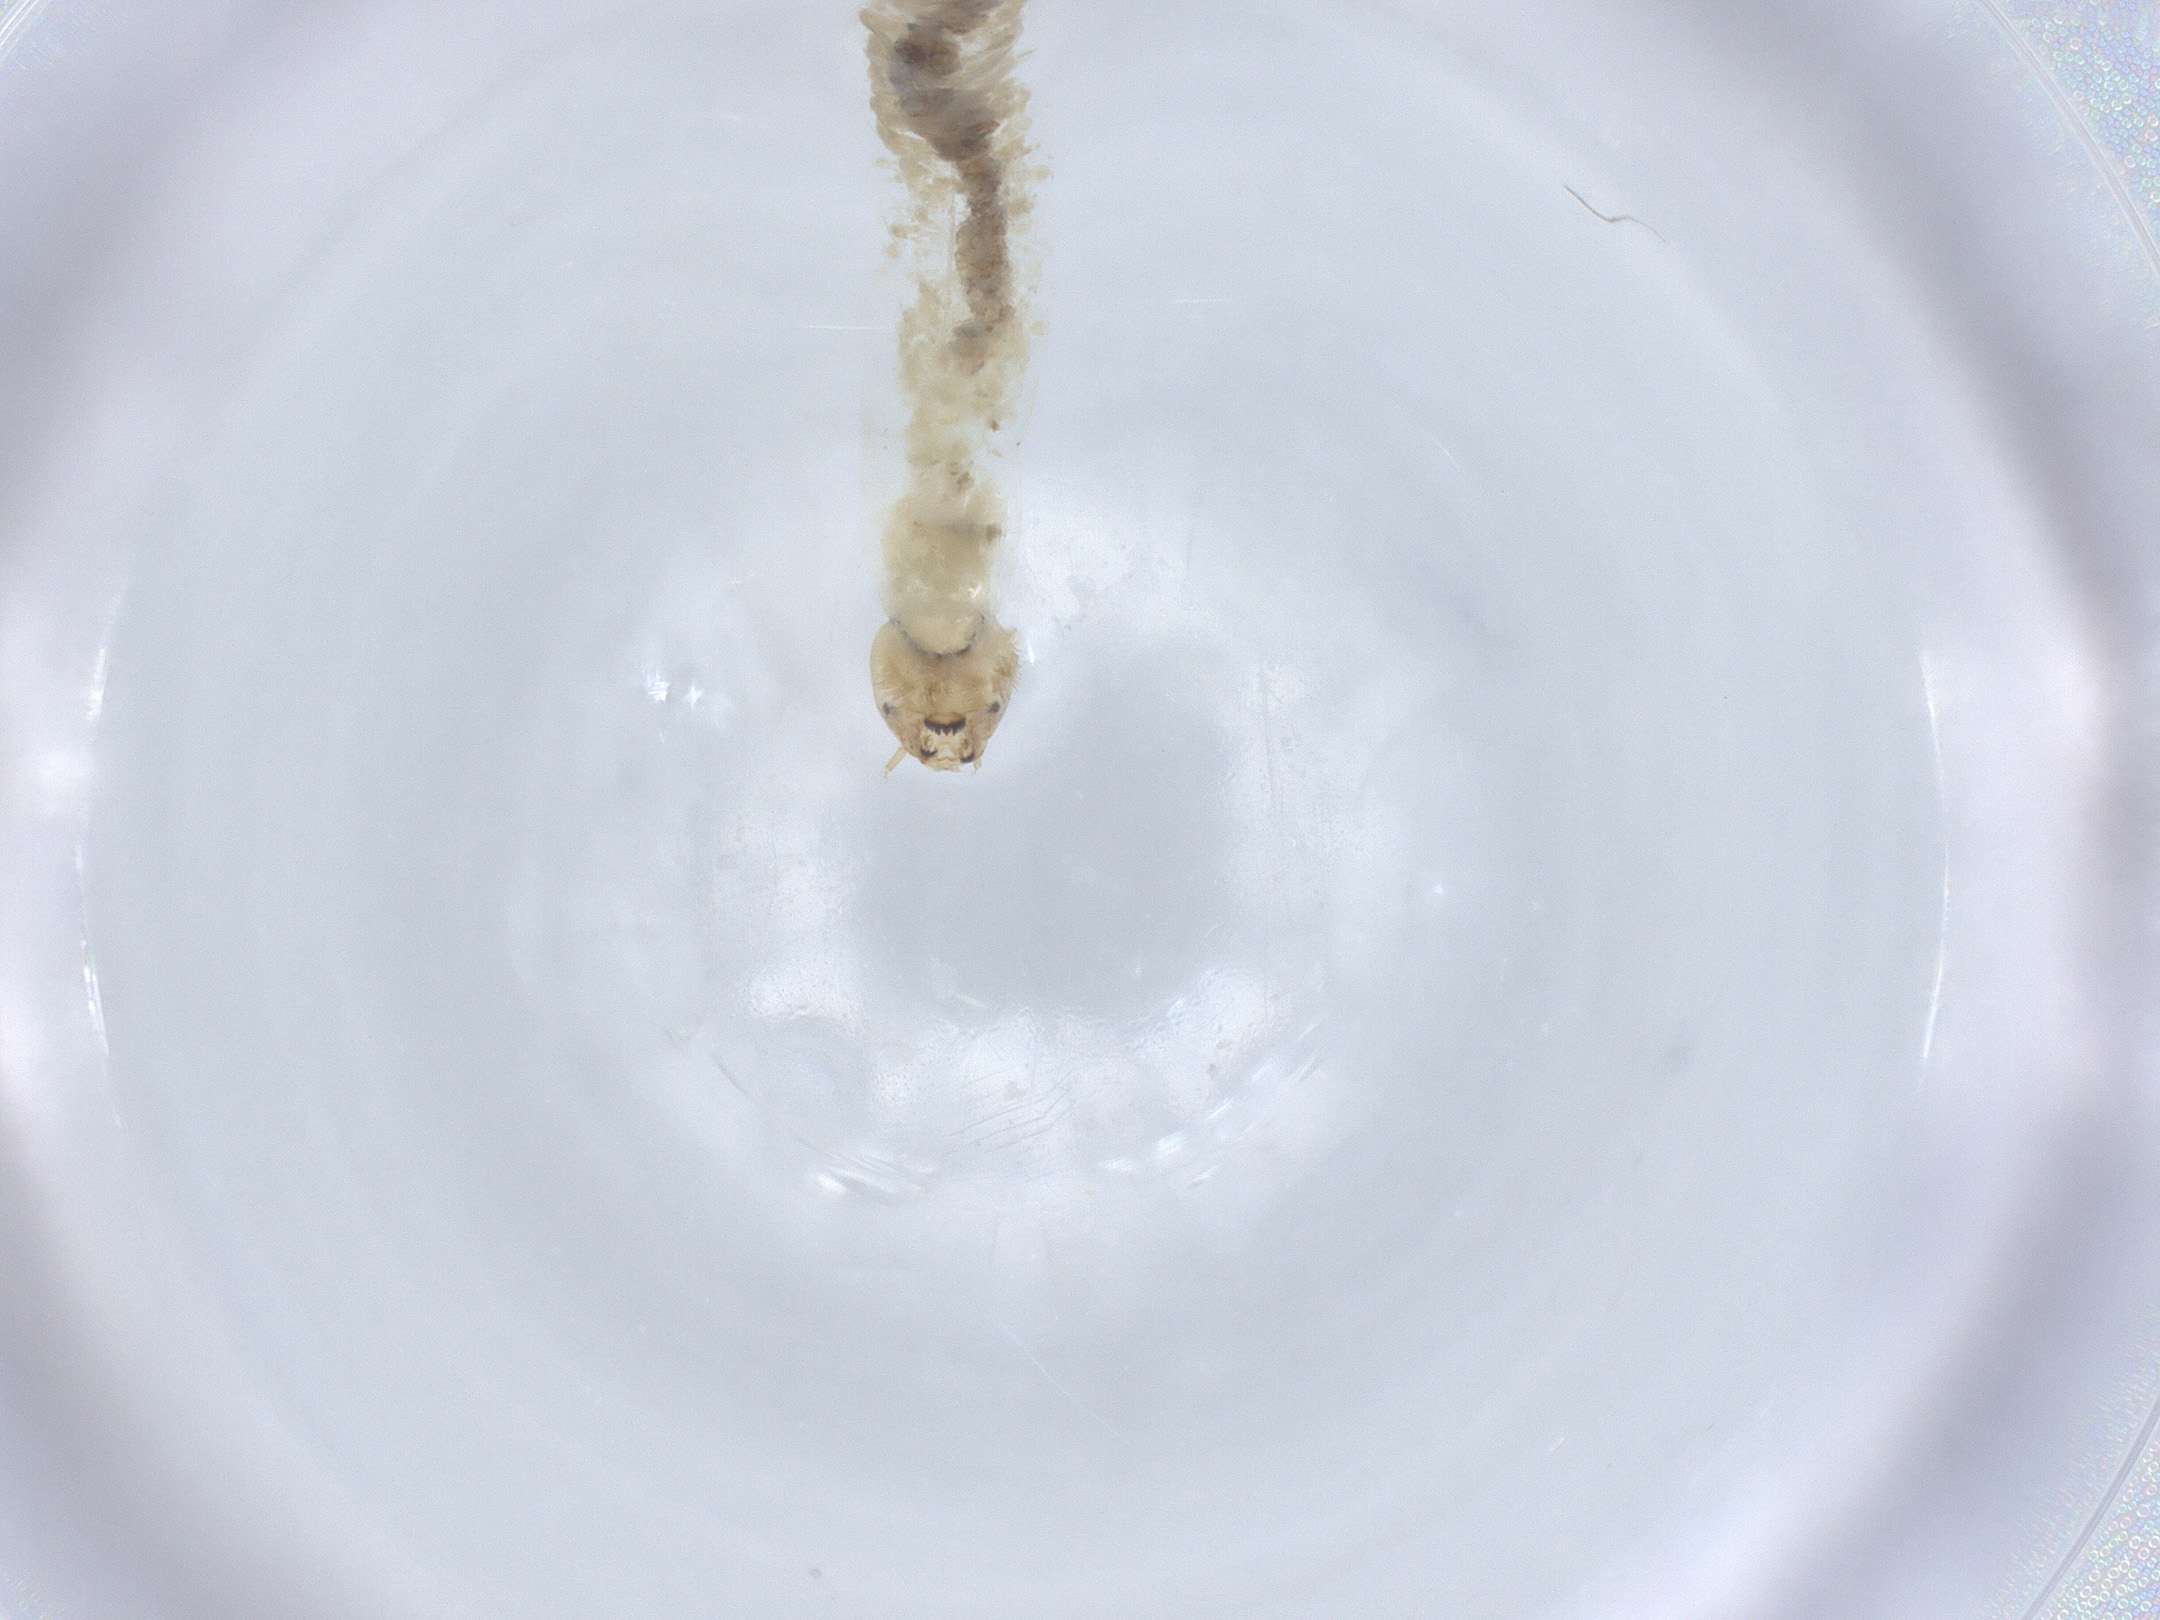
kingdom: Animalia
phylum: Arthropoda
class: Insecta
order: Diptera
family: Chironomidae
